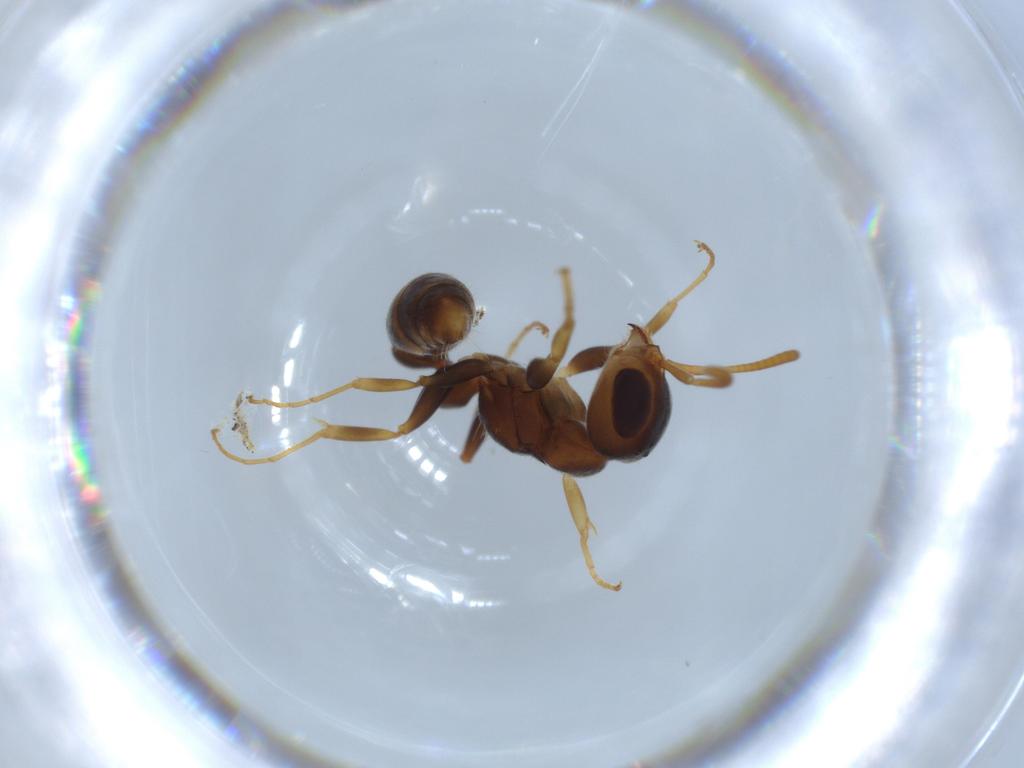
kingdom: Animalia
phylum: Arthropoda
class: Insecta
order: Hymenoptera
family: Formicidae
